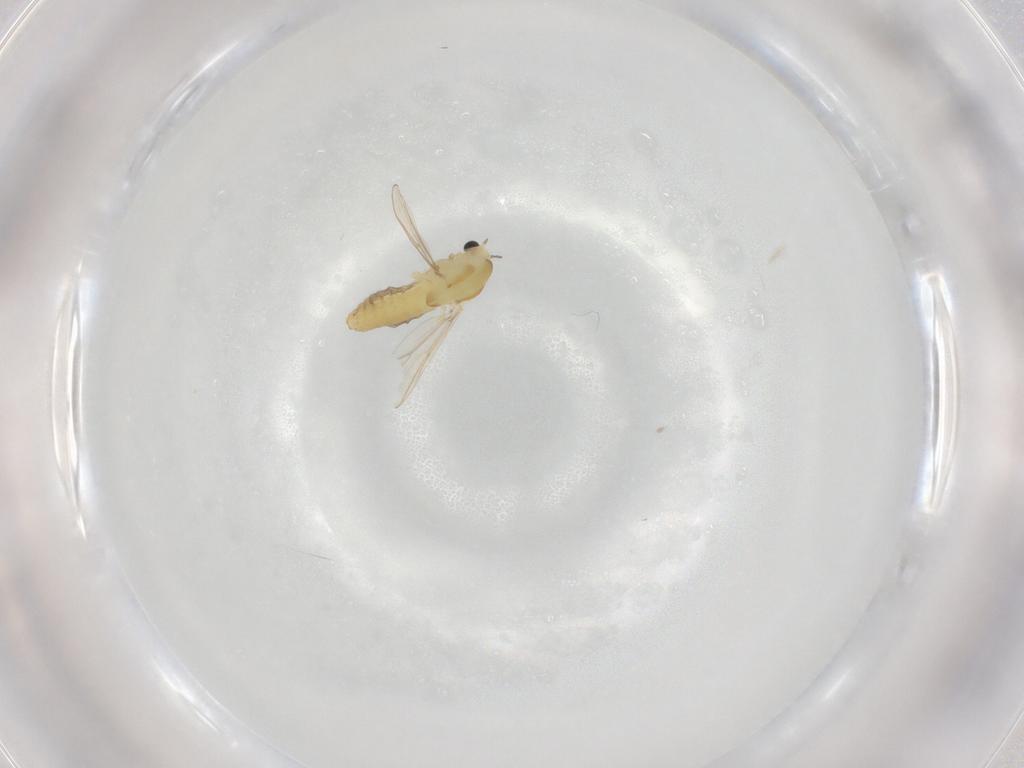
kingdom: Animalia
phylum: Arthropoda
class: Insecta
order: Diptera
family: Chironomidae
